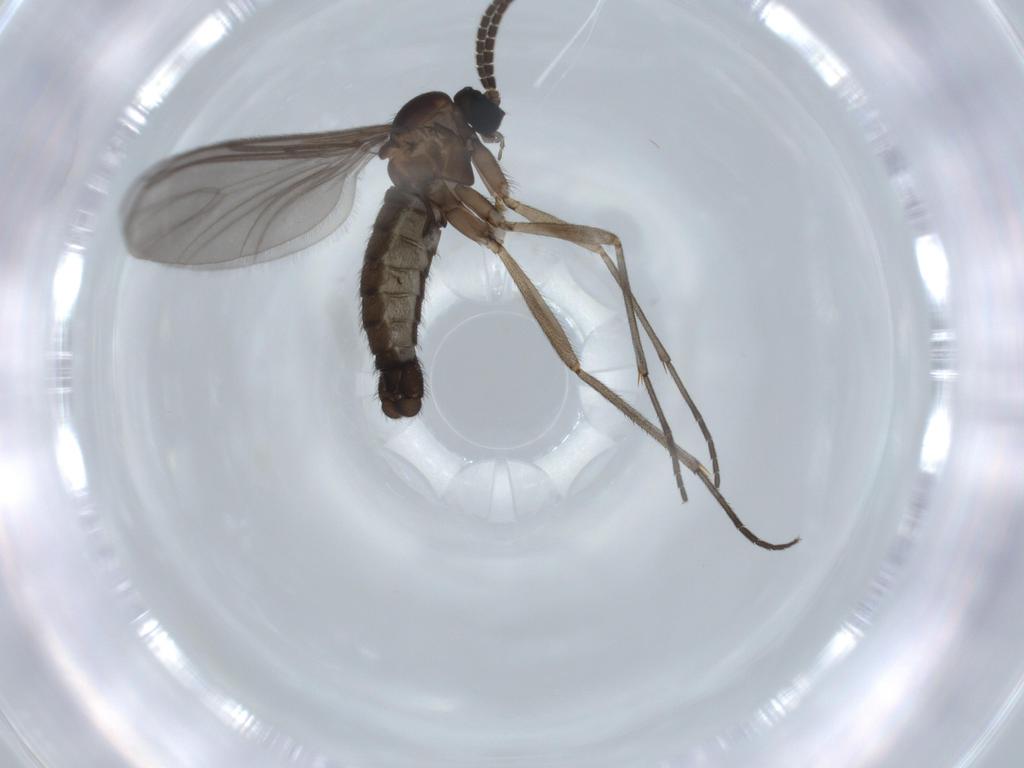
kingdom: Animalia
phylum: Arthropoda
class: Insecta
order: Diptera
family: Sciaridae
